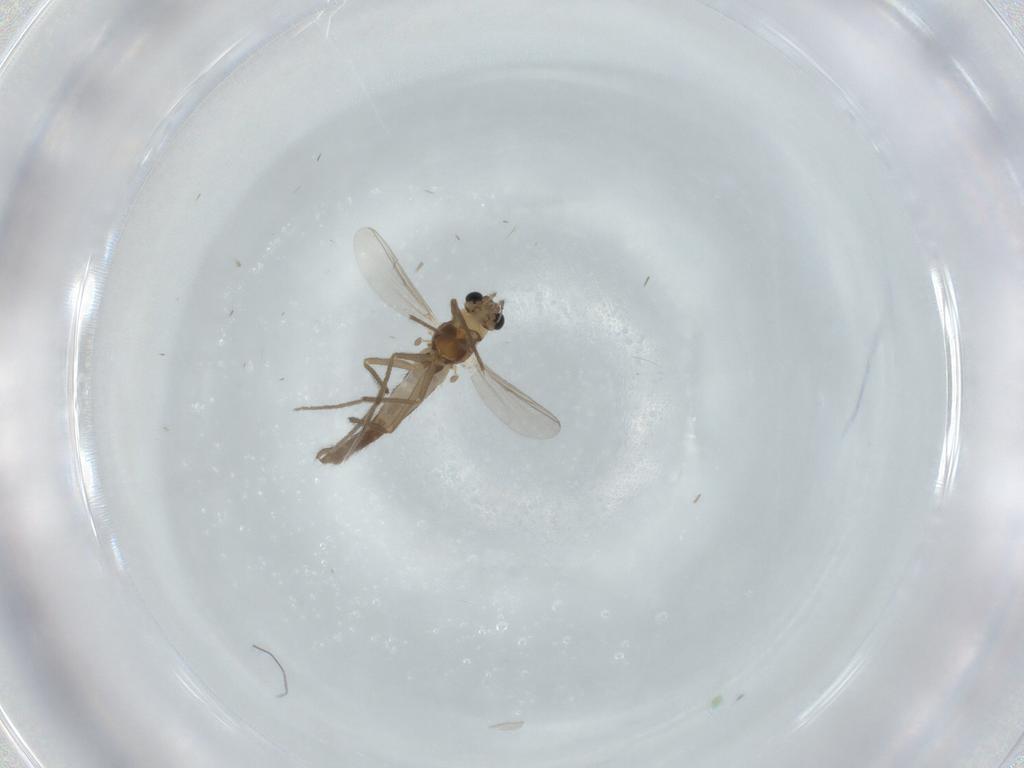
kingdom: Animalia
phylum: Arthropoda
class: Insecta
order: Diptera
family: Chironomidae
